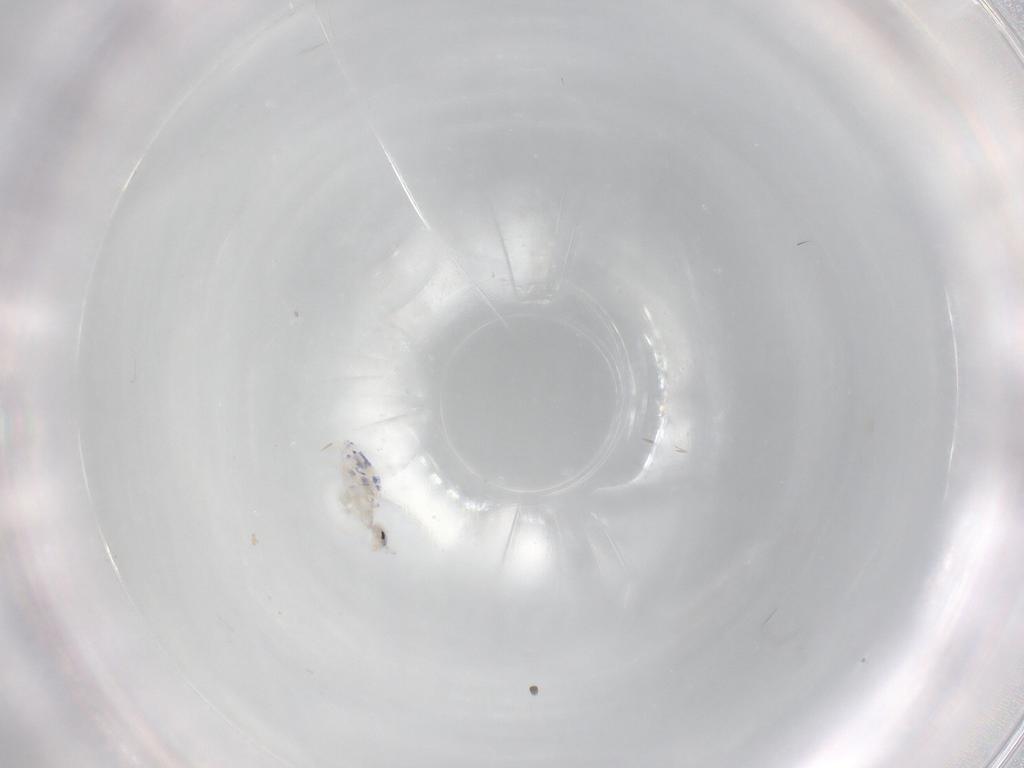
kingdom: Animalia
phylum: Arthropoda
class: Collembola
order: Entomobryomorpha
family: Entomobryidae
